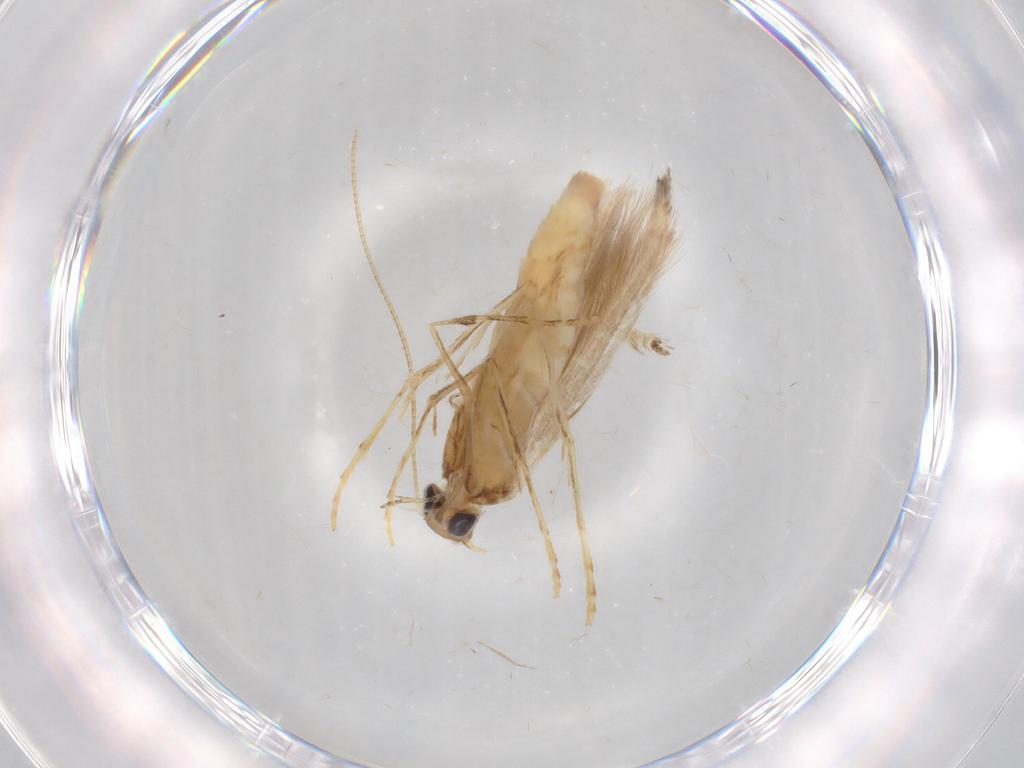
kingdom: Animalia
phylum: Arthropoda
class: Insecta
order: Lepidoptera
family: Gracillariidae
